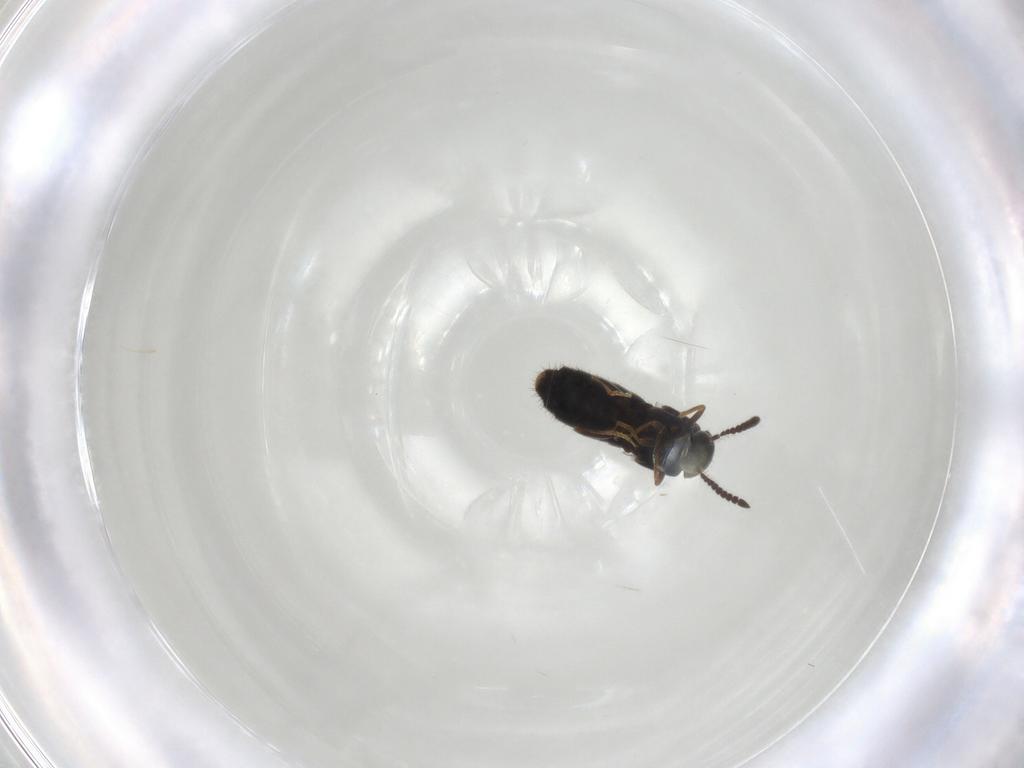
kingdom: Animalia
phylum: Arthropoda
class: Insecta
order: Coleoptera
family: Staphylinidae
